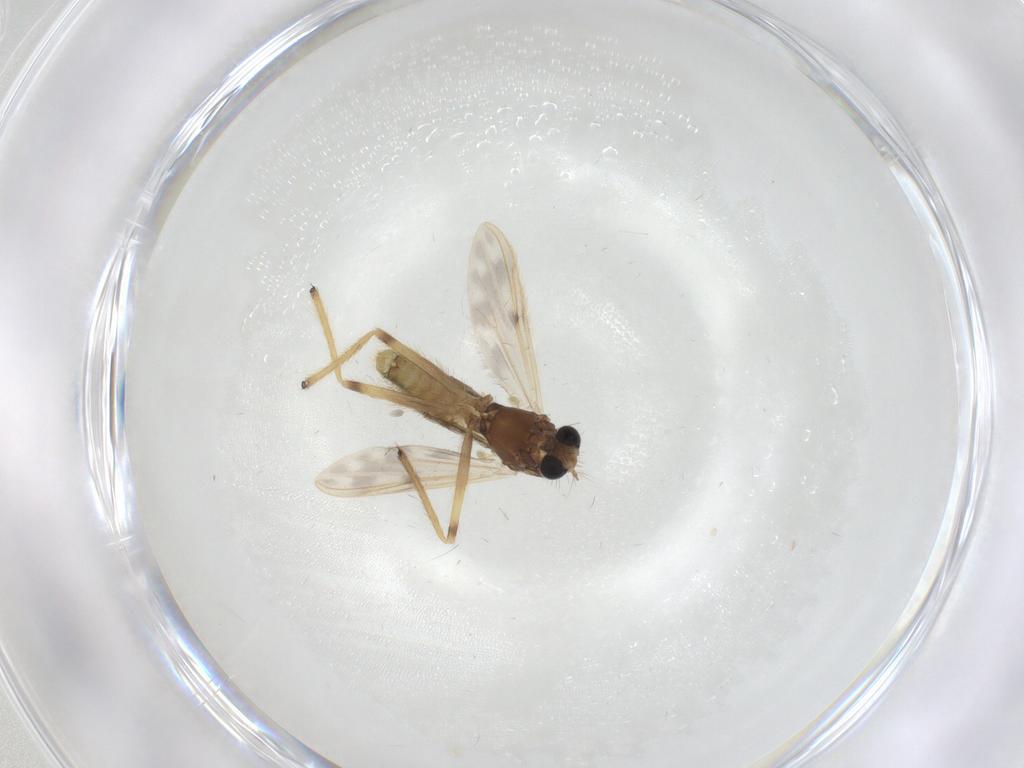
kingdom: Animalia
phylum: Arthropoda
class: Insecta
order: Diptera
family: Chironomidae
